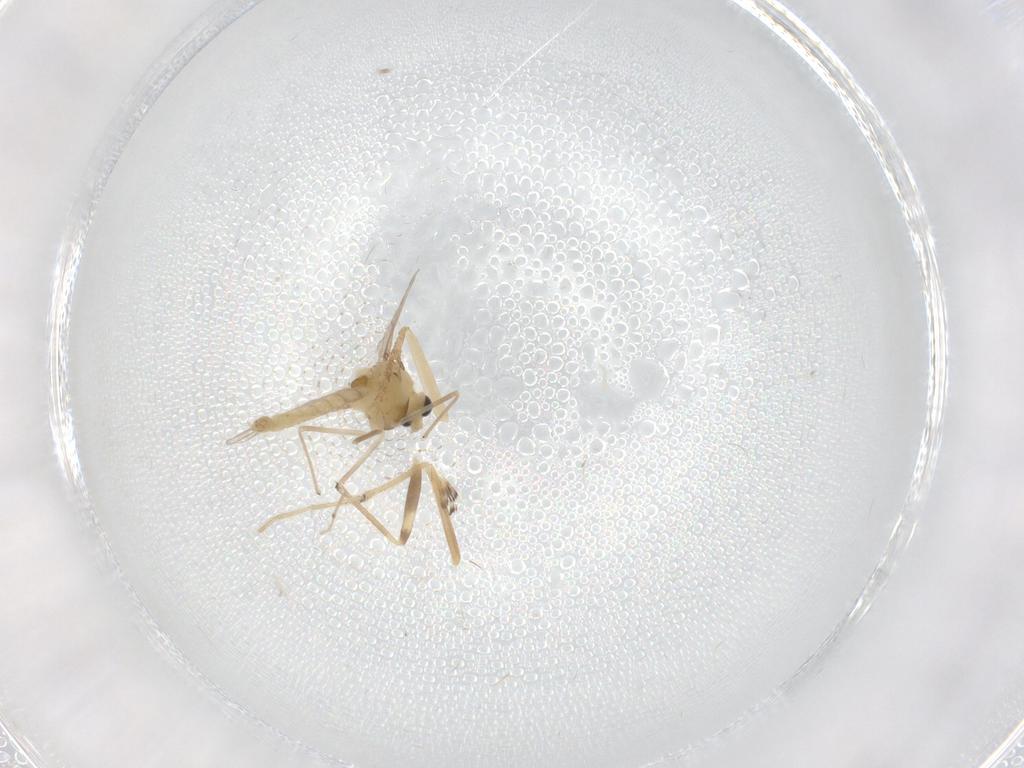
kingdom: Animalia
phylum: Arthropoda
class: Insecta
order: Diptera
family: Chironomidae
